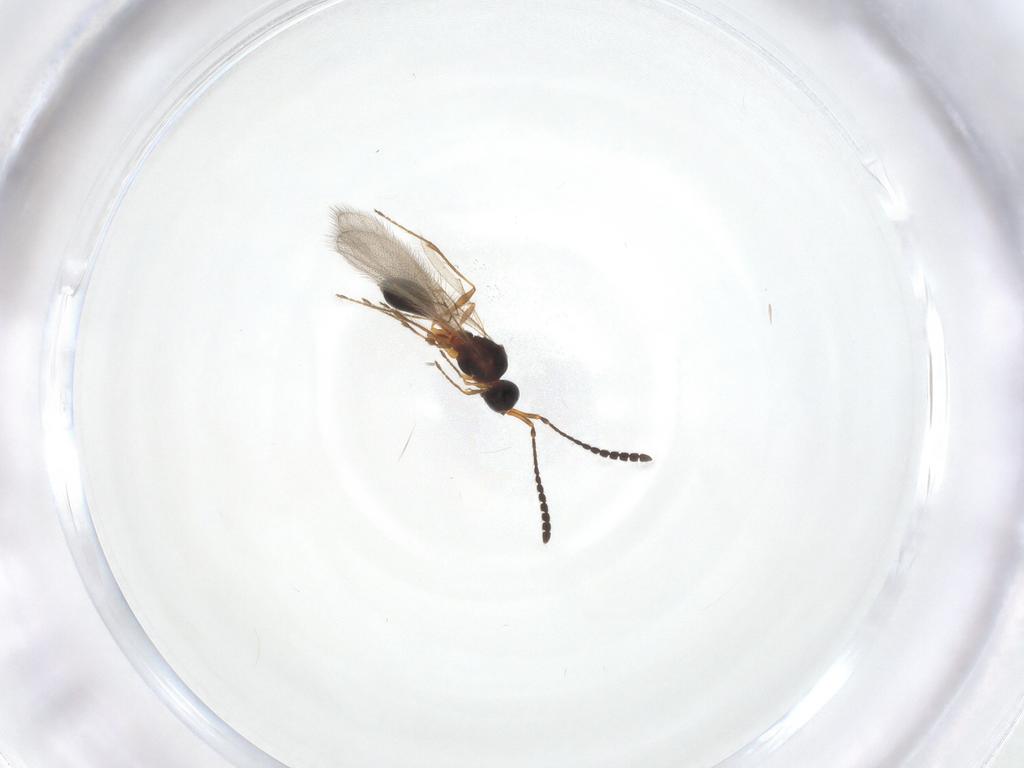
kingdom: Animalia
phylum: Arthropoda
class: Insecta
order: Hymenoptera
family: Diapriidae
